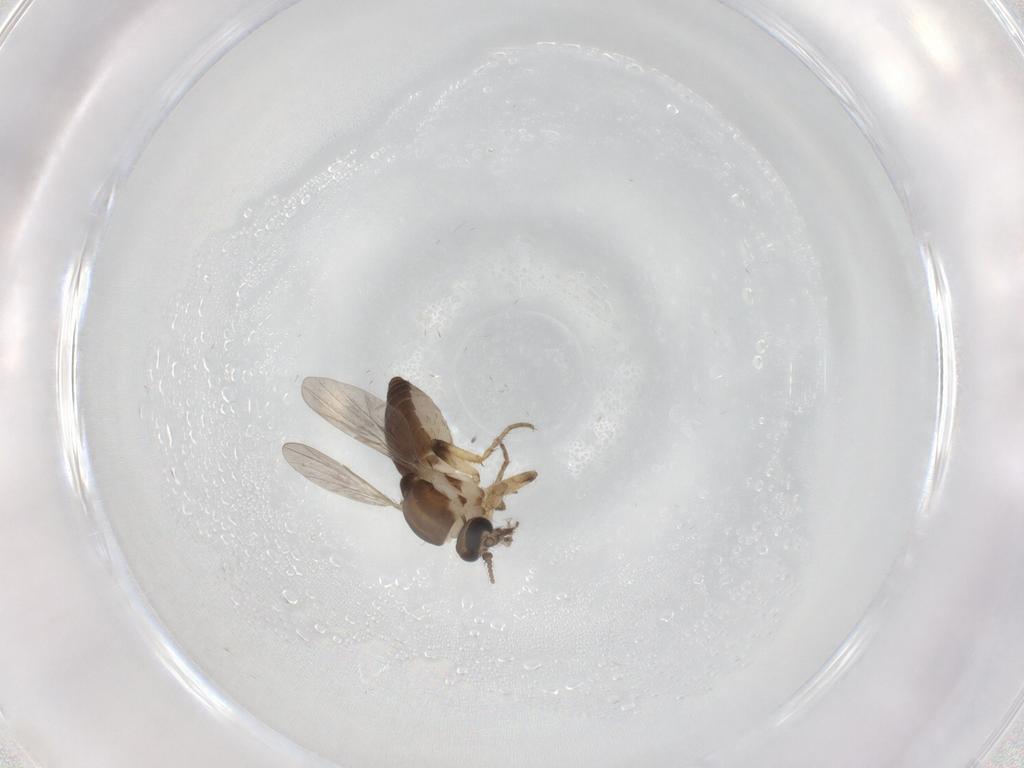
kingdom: Animalia
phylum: Arthropoda
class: Insecta
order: Diptera
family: Ceratopogonidae
